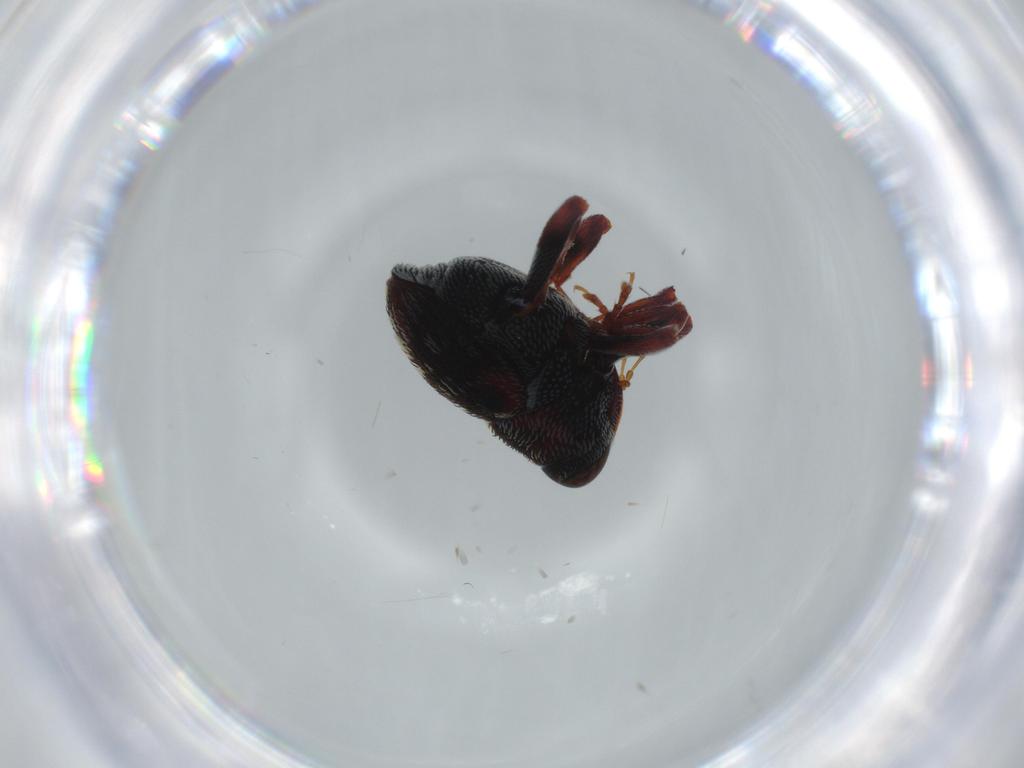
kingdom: Animalia
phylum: Arthropoda
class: Insecta
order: Coleoptera
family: Dermestidae
